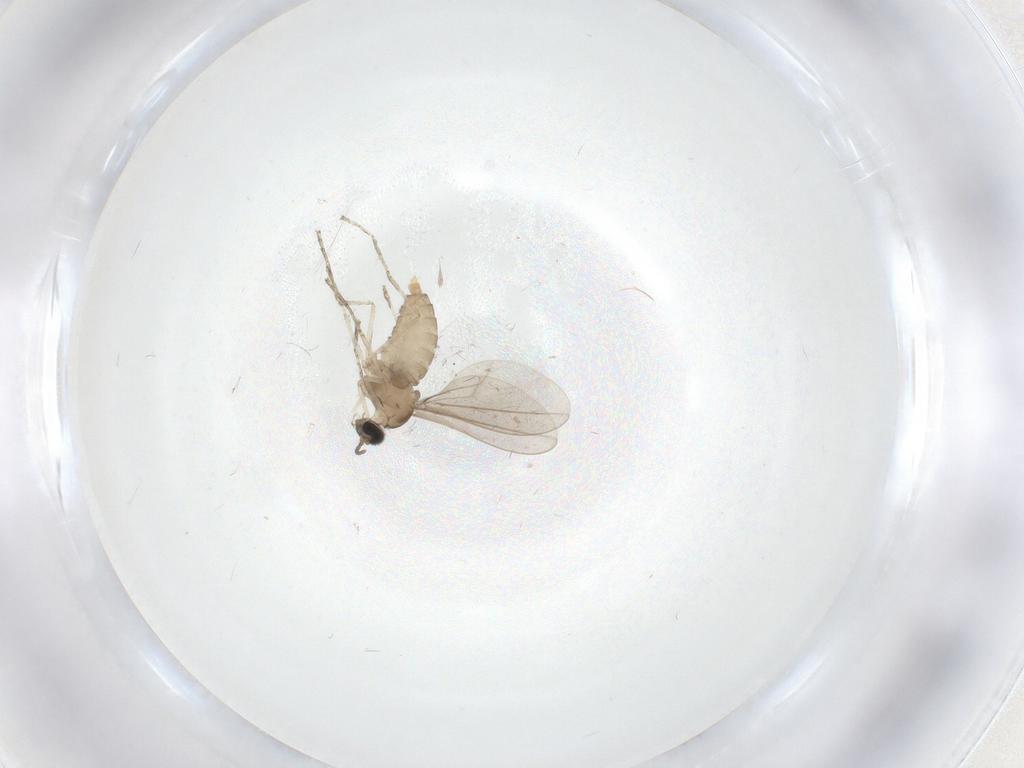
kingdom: Animalia
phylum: Arthropoda
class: Insecta
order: Diptera
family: Cecidomyiidae
